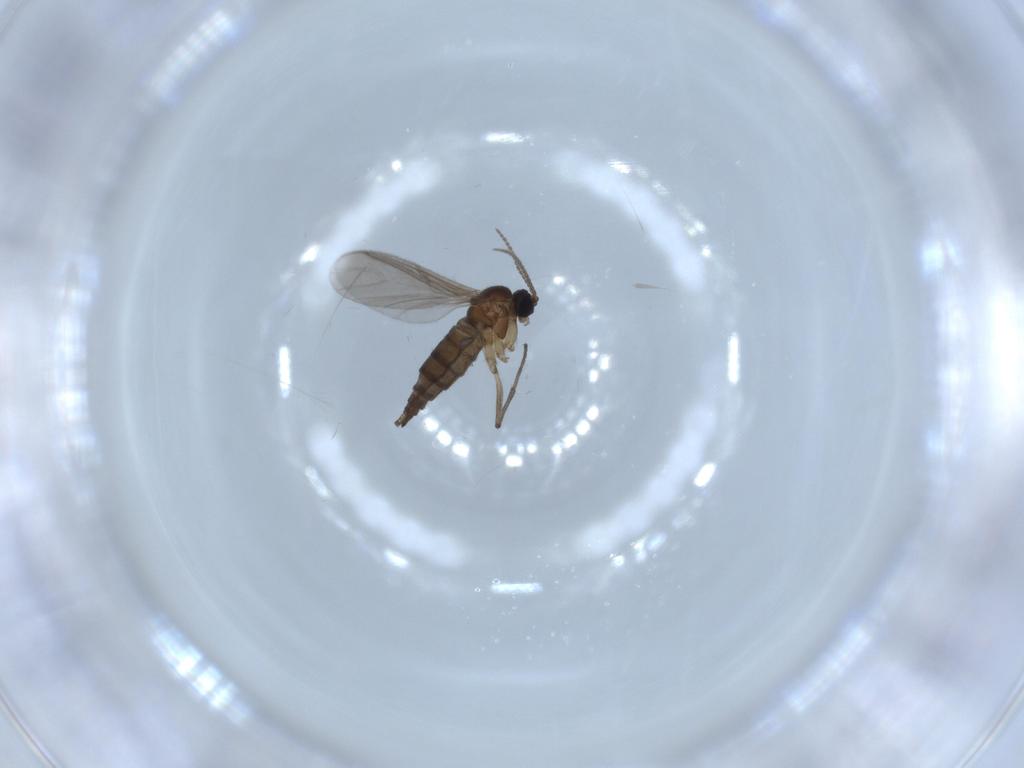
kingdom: Animalia
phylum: Arthropoda
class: Insecta
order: Diptera
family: Sciaridae
